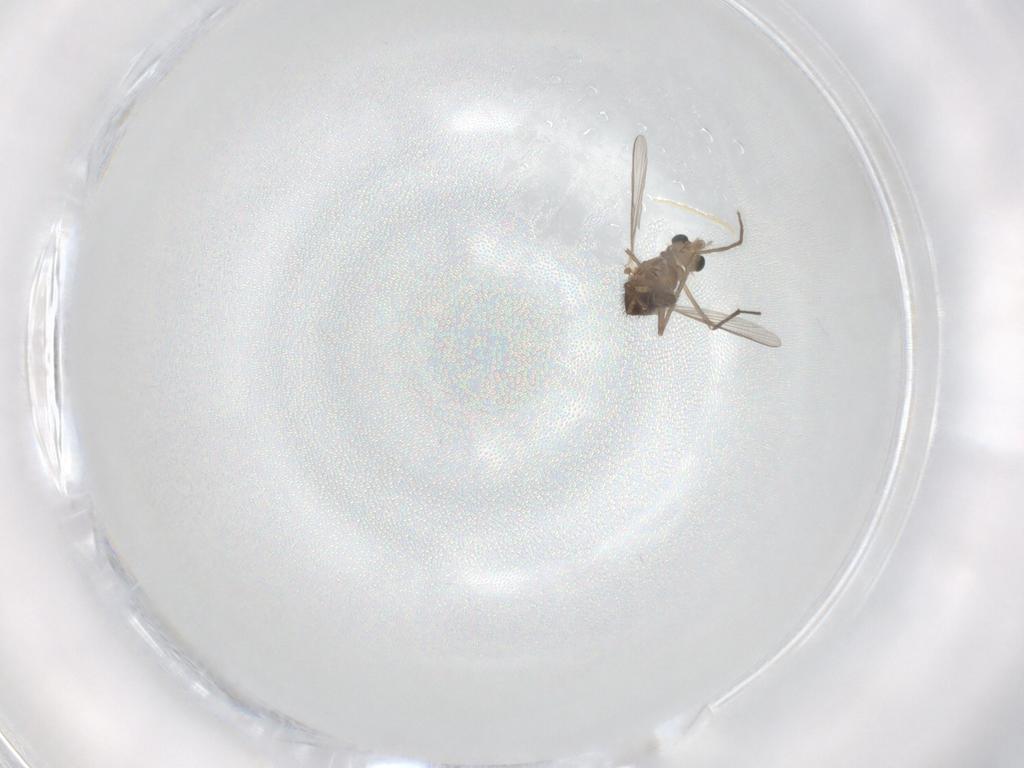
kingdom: Animalia
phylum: Arthropoda
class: Insecta
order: Diptera
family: Chironomidae
